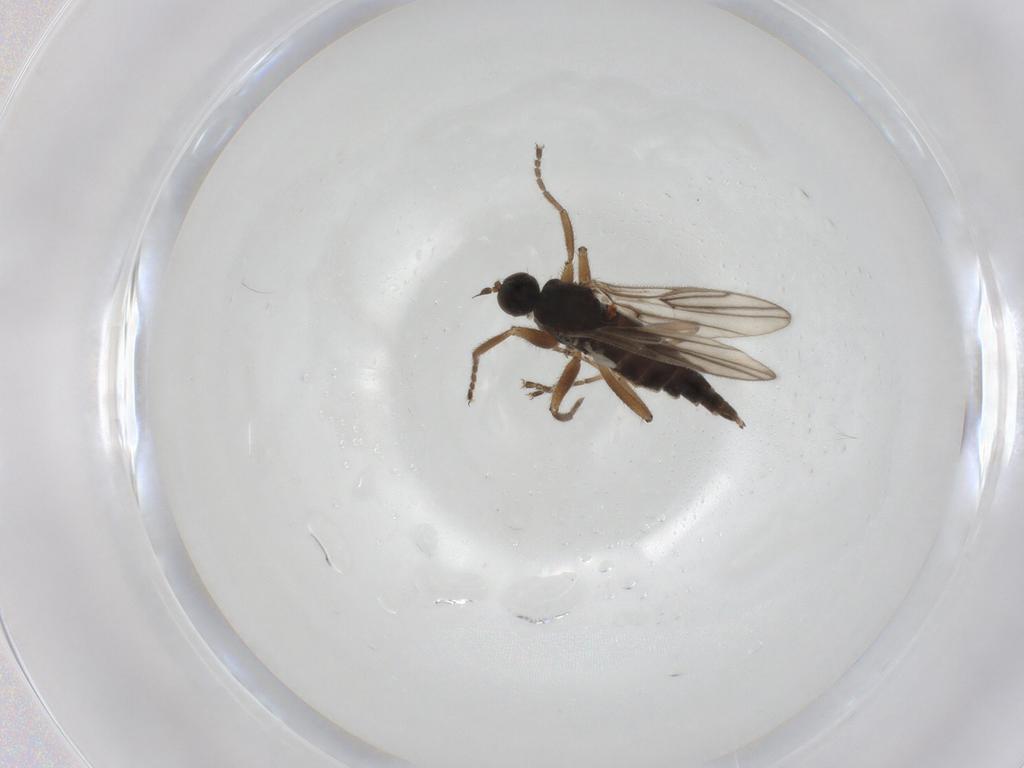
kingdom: Animalia
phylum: Arthropoda
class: Insecta
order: Diptera
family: Hybotidae
